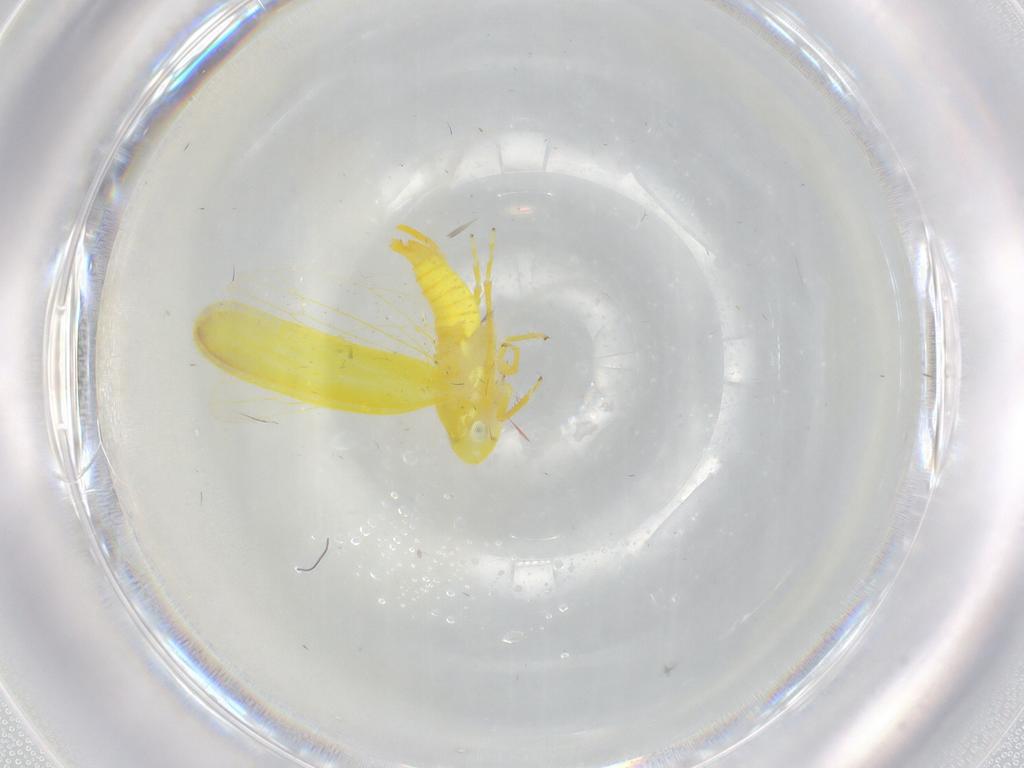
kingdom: Animalia
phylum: Arthropoda
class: Insecta
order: Hemiptera
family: Cicadellidae
